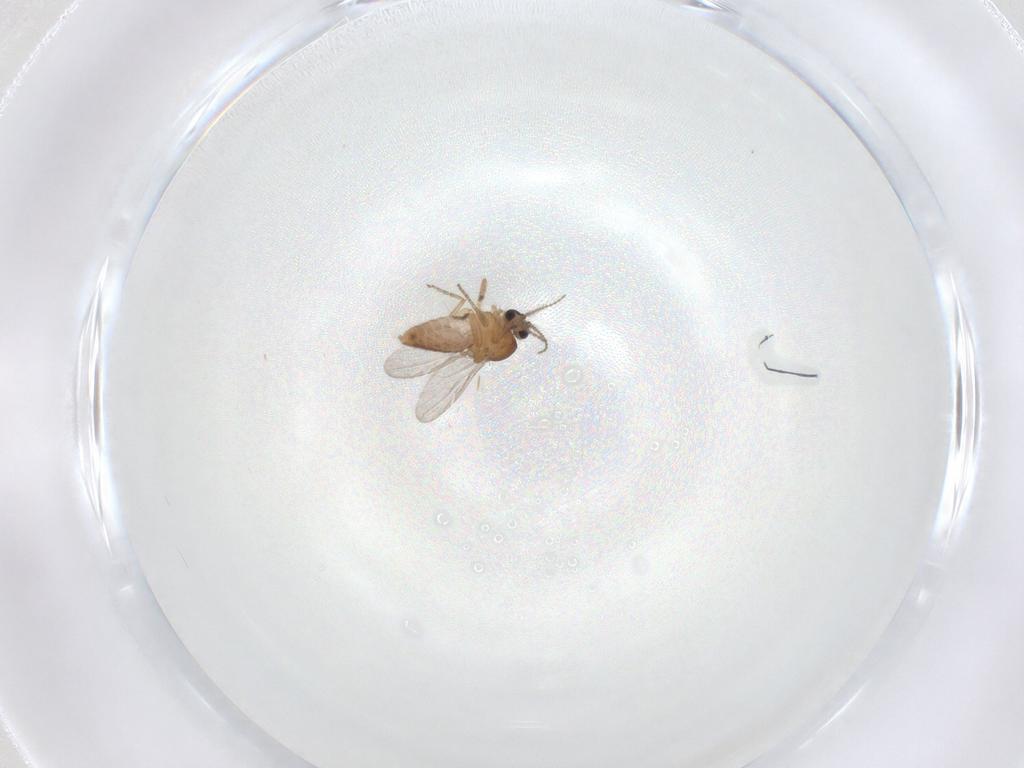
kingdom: Animalia
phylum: Arthropoda
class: Insecta
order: Diptera
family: Ceratopogonidae
